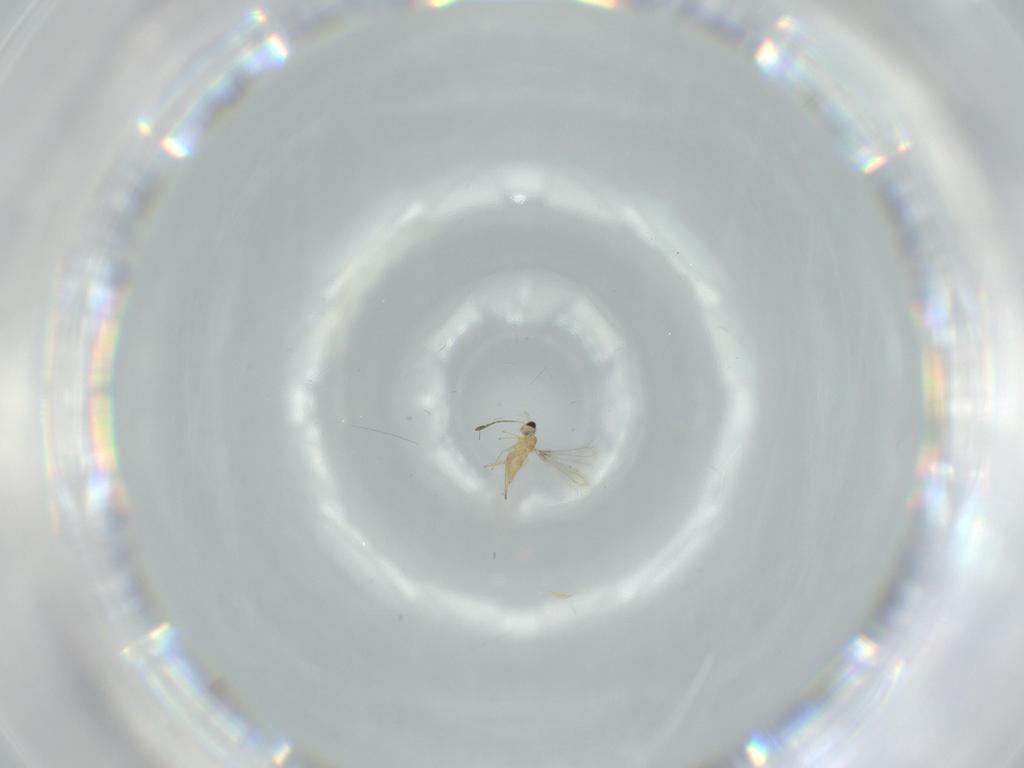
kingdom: Animalia
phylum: Arthropoda
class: Insecta
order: Hymenoptera
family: Mymaridae
